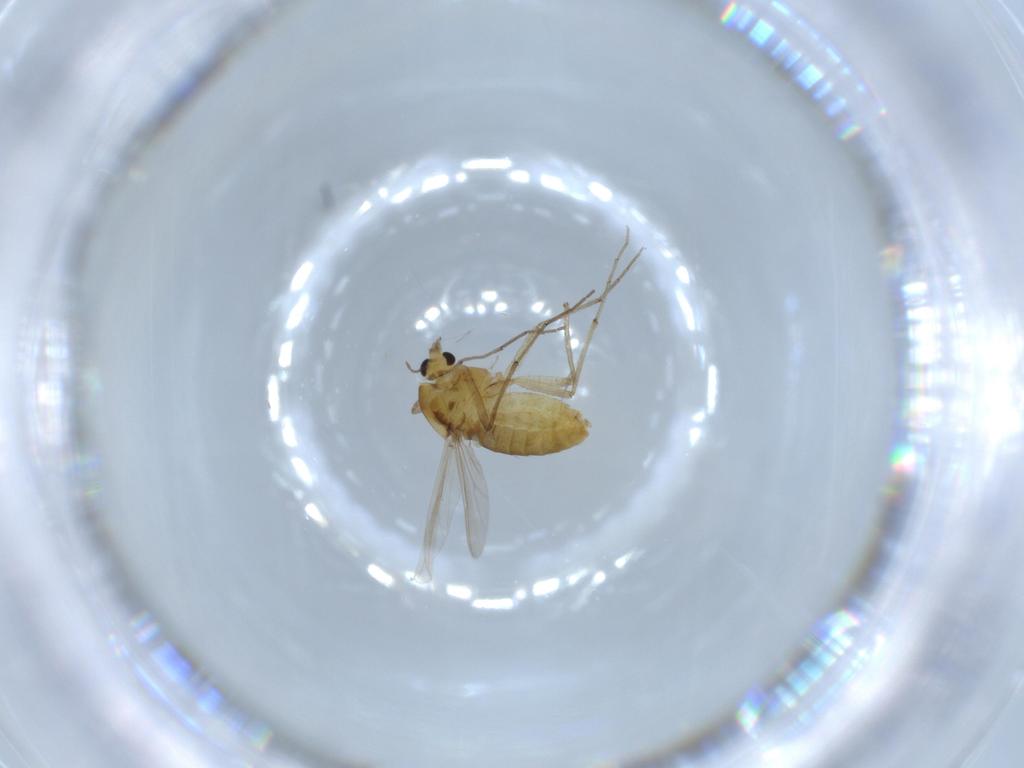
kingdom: Animalia
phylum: Arthropoda
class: Insecta
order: Diptera
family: Chironomidae
